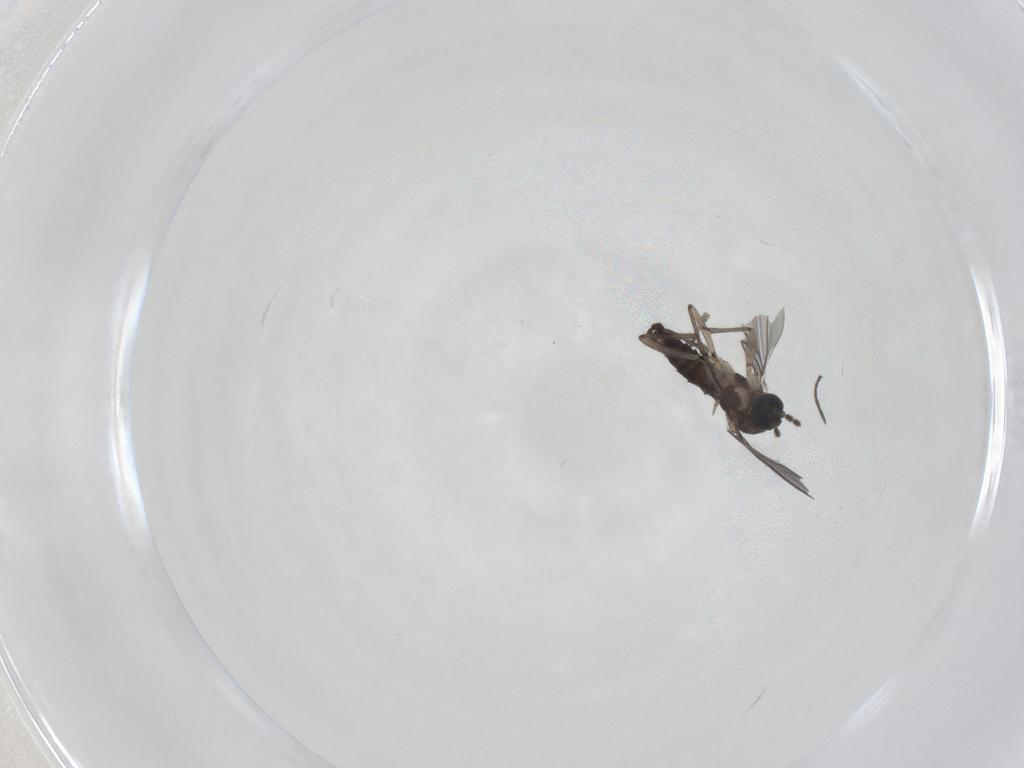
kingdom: Animalia
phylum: Arthropoda
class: Insecta
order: Diptera
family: Sciaridae
